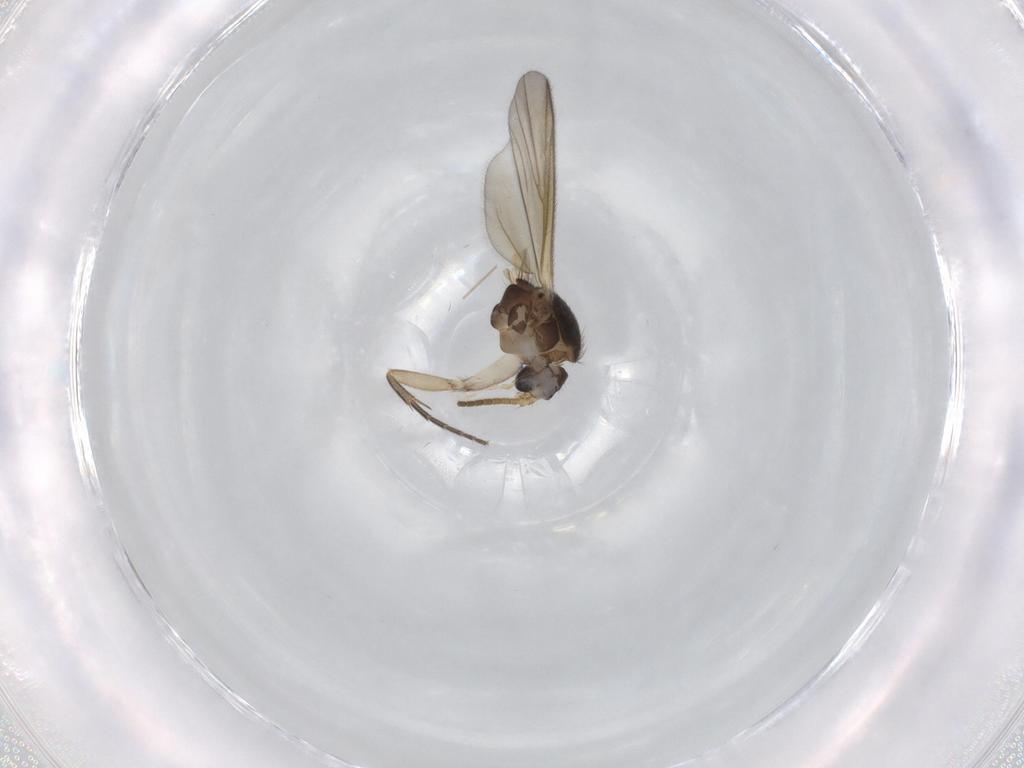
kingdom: Animalia
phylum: Arthropoda
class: Insecta
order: Diptera
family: Mycetophilidae
